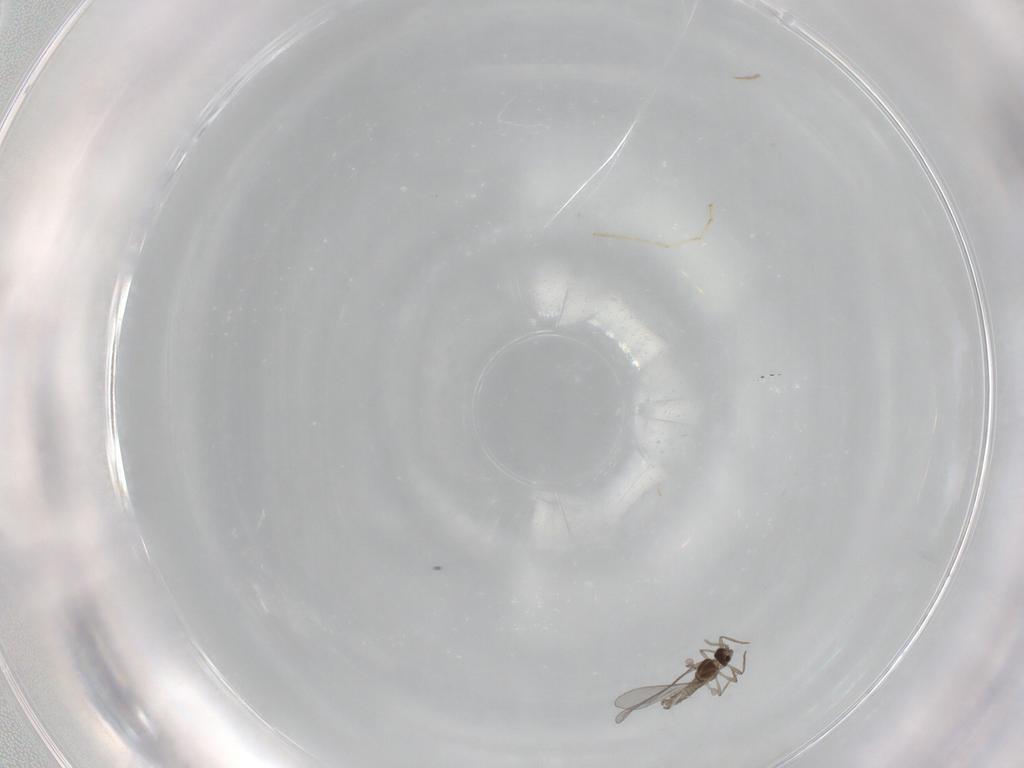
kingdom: Animalia
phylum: Arthropoda
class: Insecta
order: Diptera
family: Cecidomyiidae
